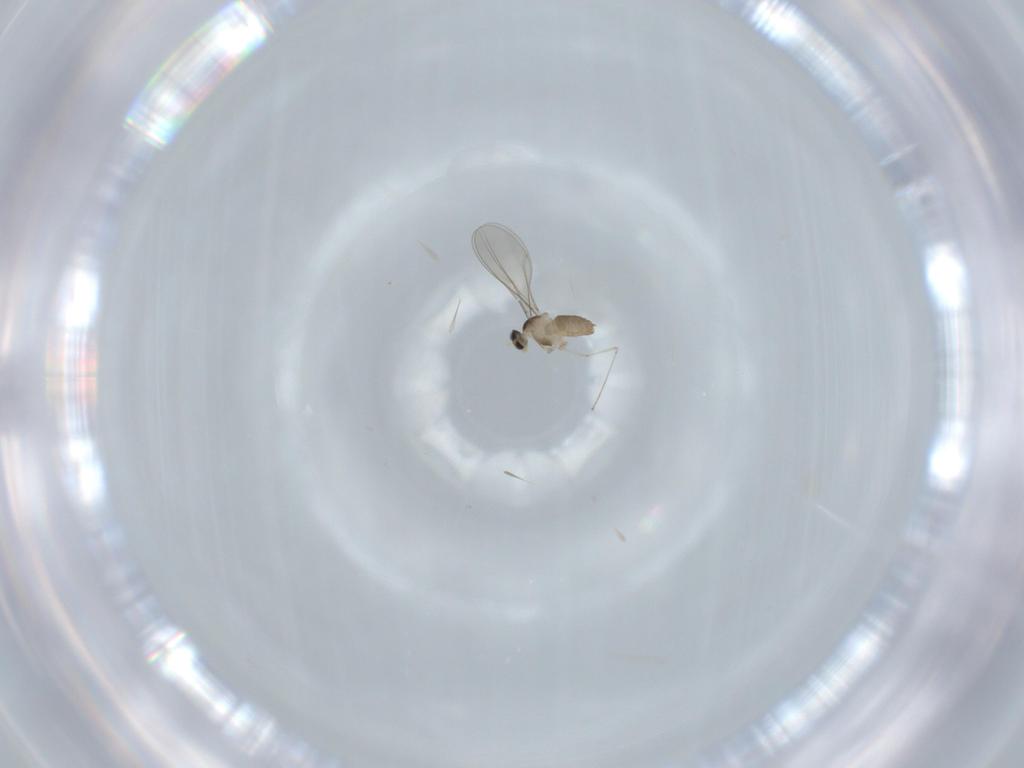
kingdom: Animalia
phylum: Arthropoda
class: Insecta
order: Diptera
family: Cecidomyiidae
